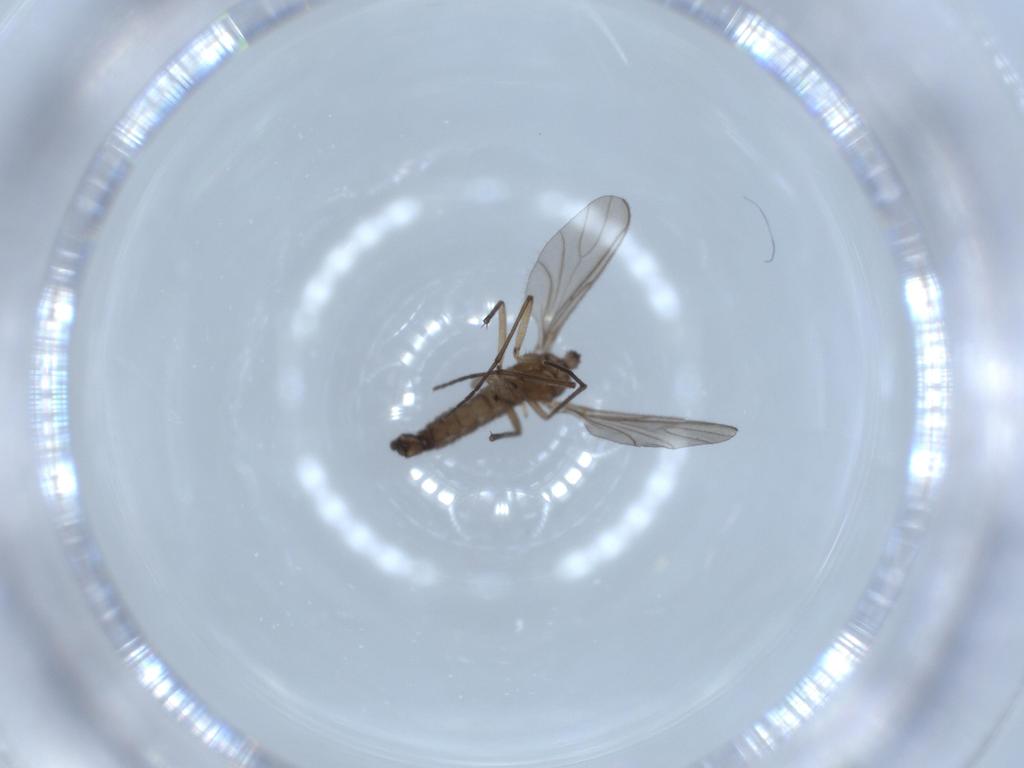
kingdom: Animalia
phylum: Arthropoda
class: Insecta
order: Diptera
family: Sciaridae
